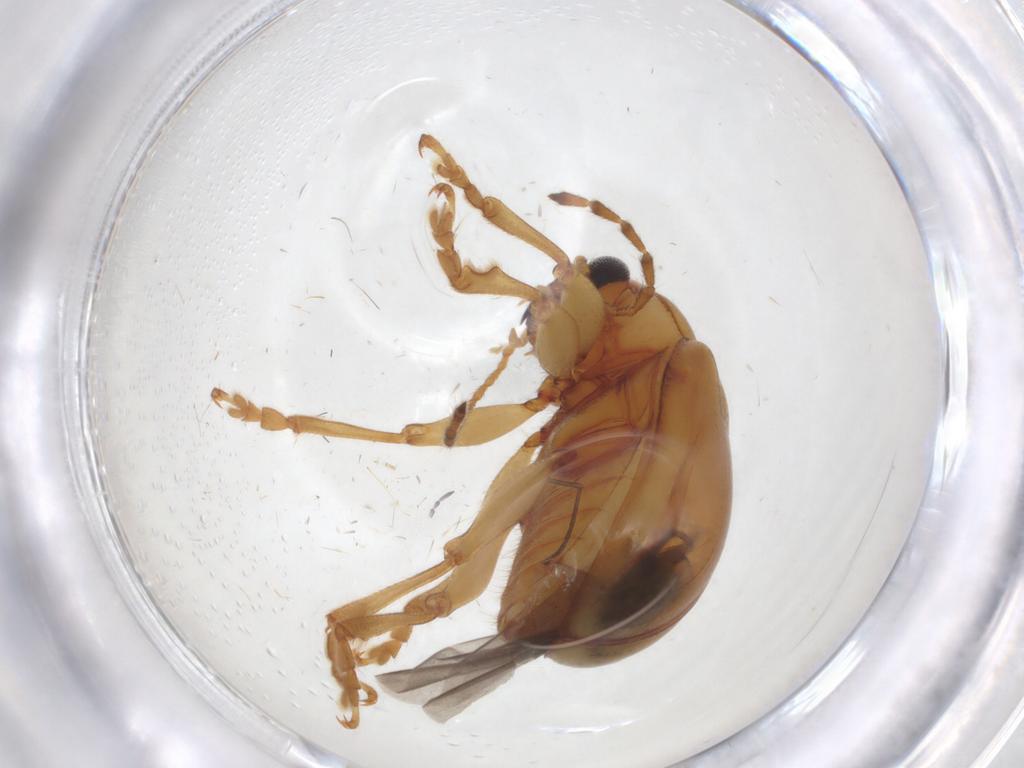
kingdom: Animalia
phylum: Arthropoda
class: Insecta
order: Coleoptera
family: Chrysomelidae
